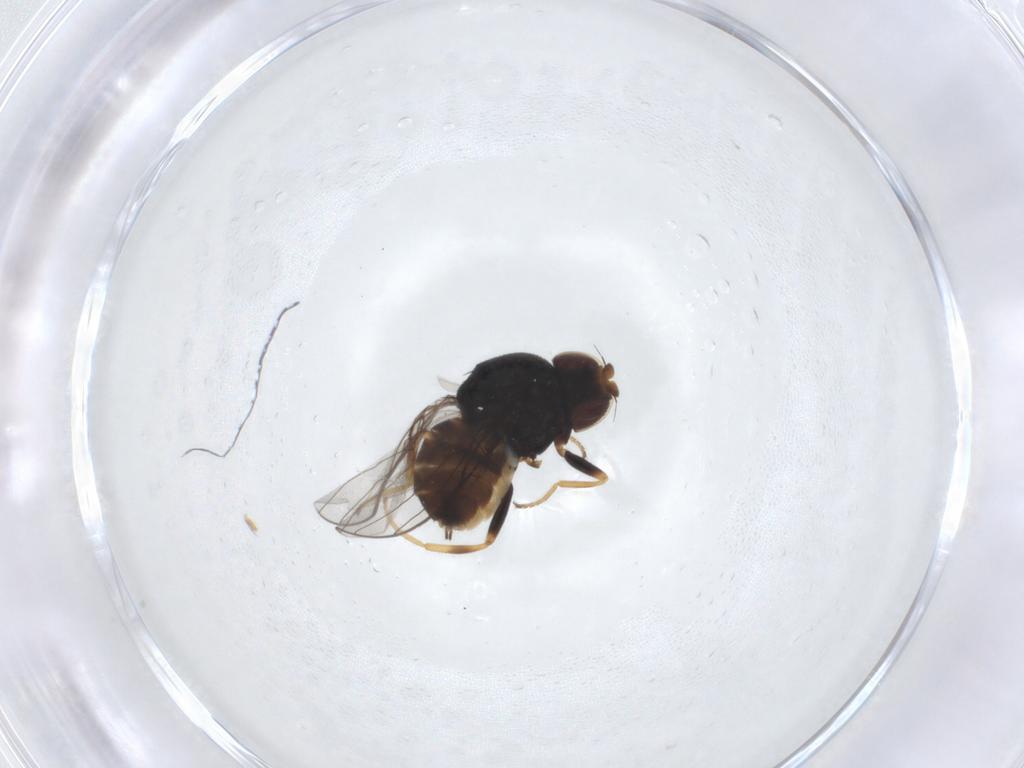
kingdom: Animalia
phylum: Arthropoda
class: Insecta
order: Diptera
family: Chloropidae
